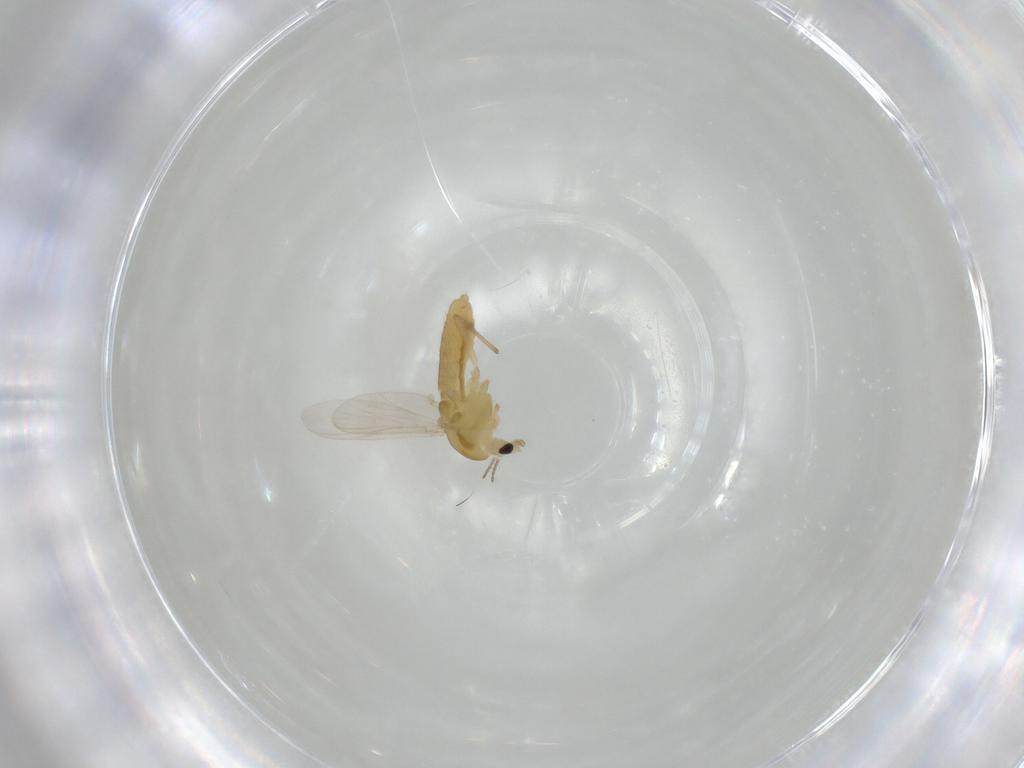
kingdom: Animalia
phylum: Arthropoda
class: Insecta
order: Diptera
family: Chironomidae
